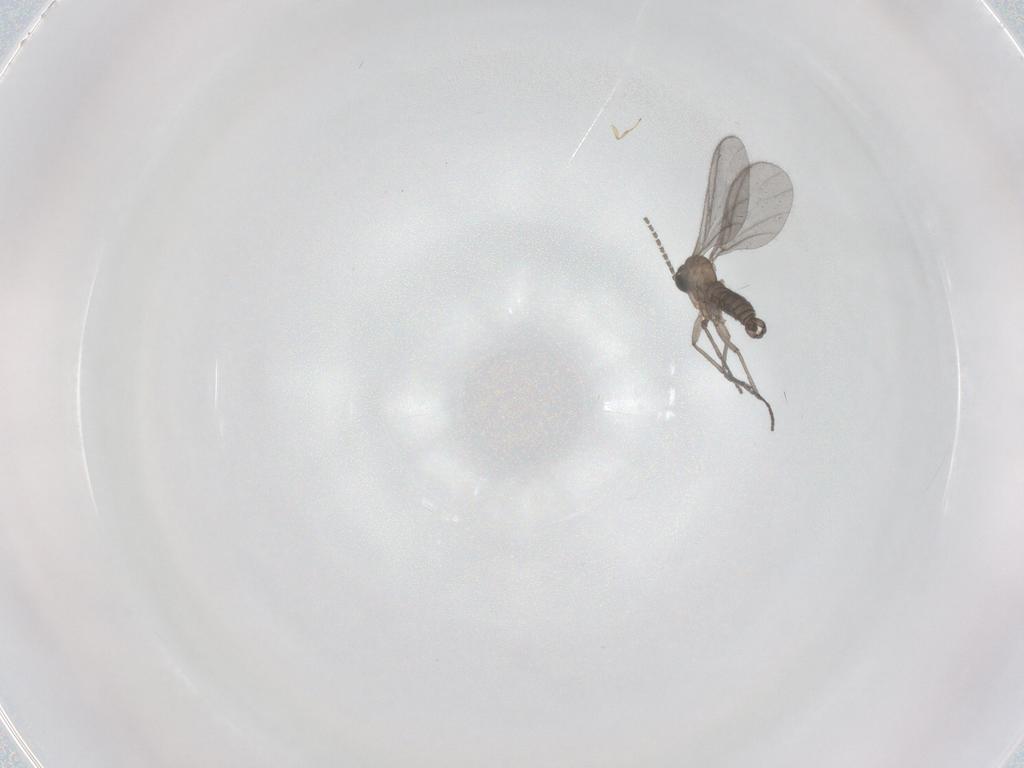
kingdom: Animalia
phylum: Arthropoda
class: Insecta
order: Diptera
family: Sciaridae
